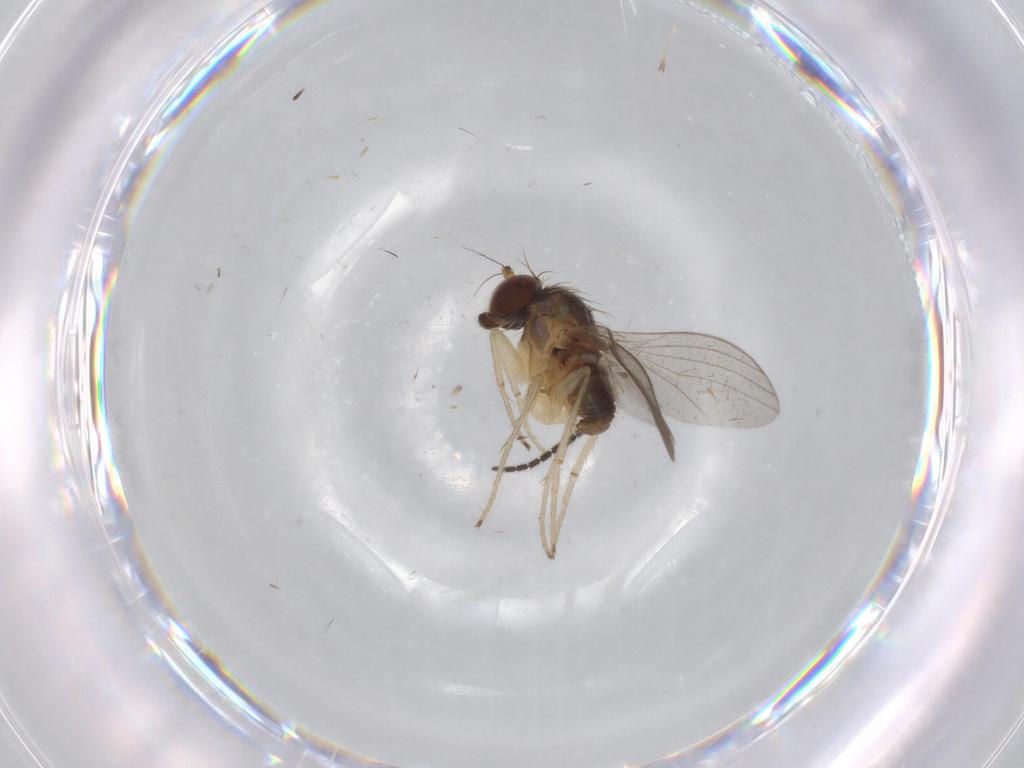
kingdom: Animalia
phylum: Arthropoda
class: Insecta
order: Diptera
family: Dolichopodidae
